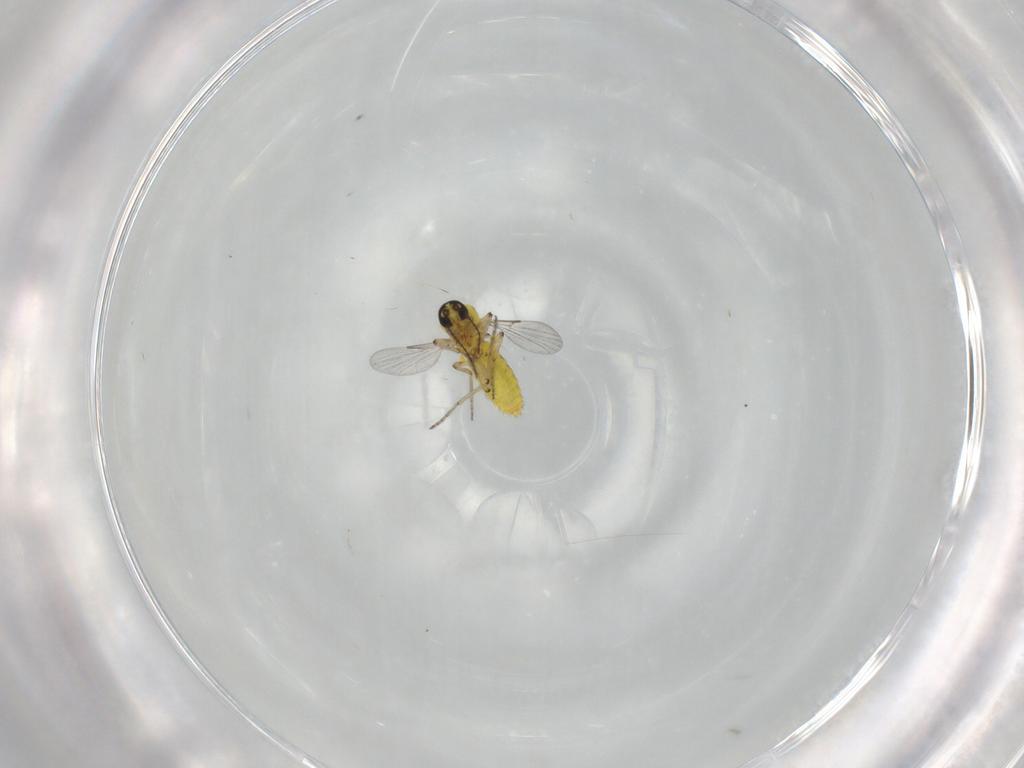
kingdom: Animalia
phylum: Arthropoda
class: Insecta
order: Diptera
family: Ceratopogonidae
